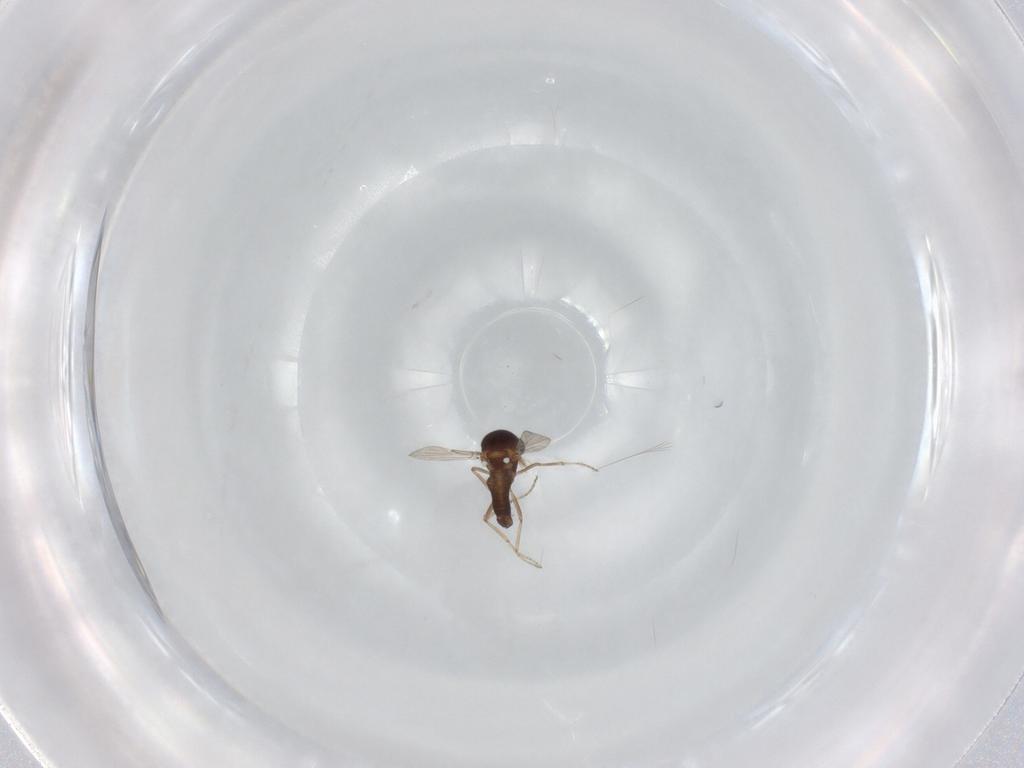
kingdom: Animalia
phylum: Arthropoda
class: Insecta
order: Diptera
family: Ceratopogonidae
